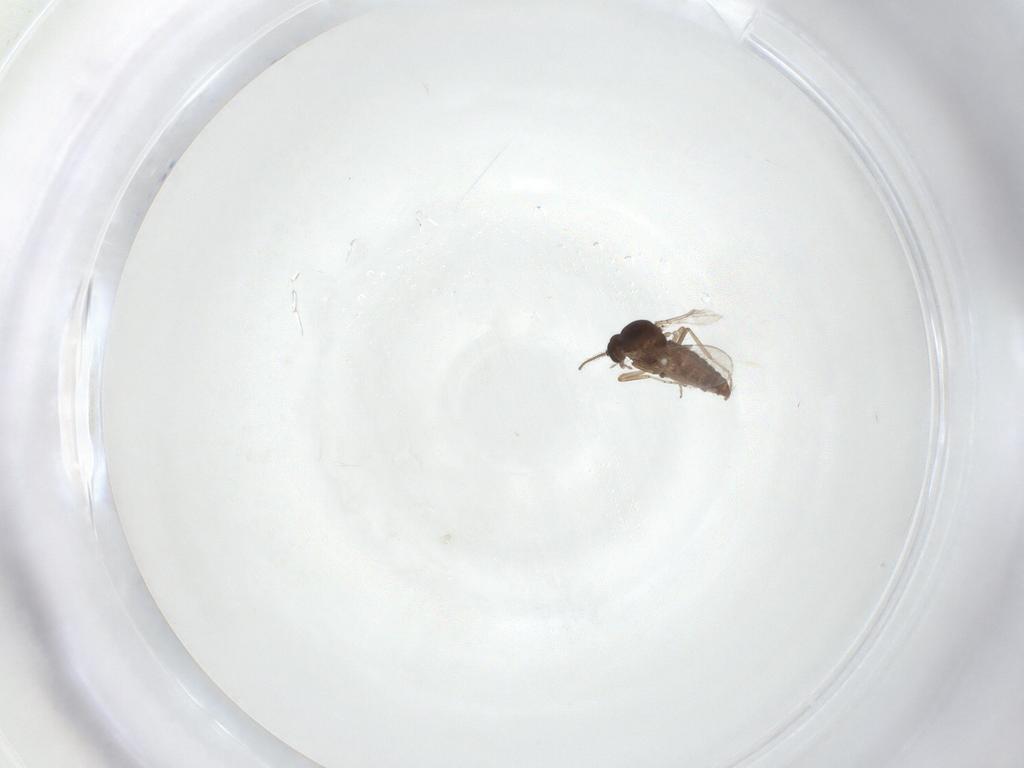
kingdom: Animalia
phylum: Arthropoda
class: Insecta
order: Diptera
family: Ceratopogonidae
